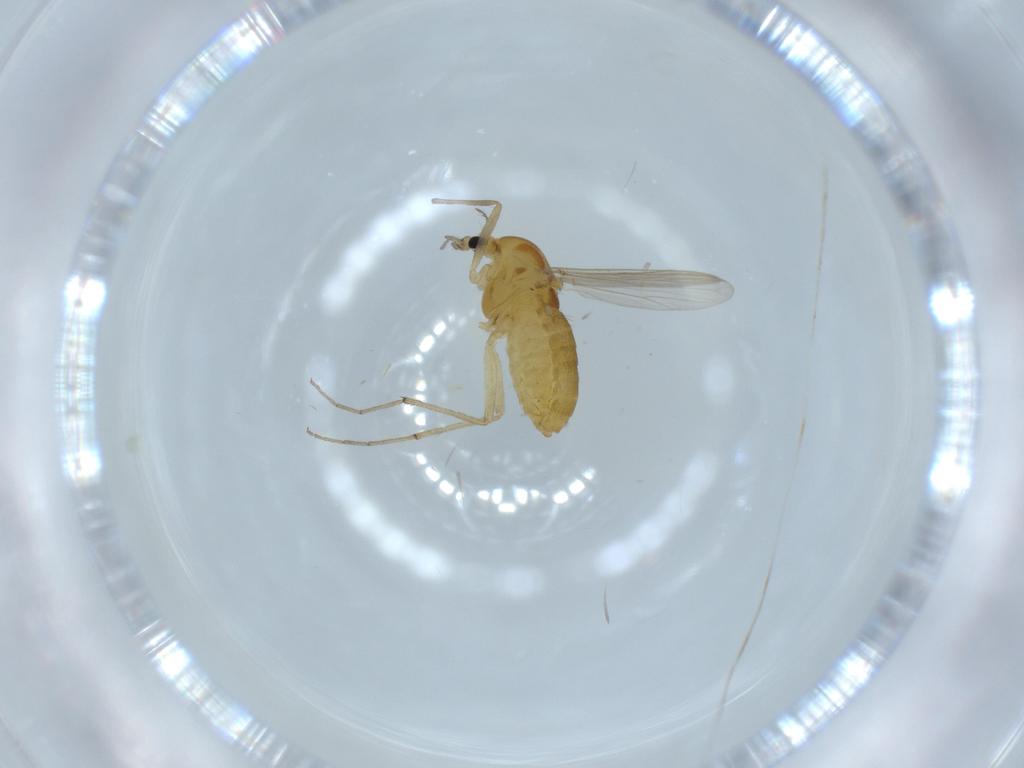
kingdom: Animalia
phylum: Arthropoda
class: Insecta
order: Diptera
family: Chironomidae
